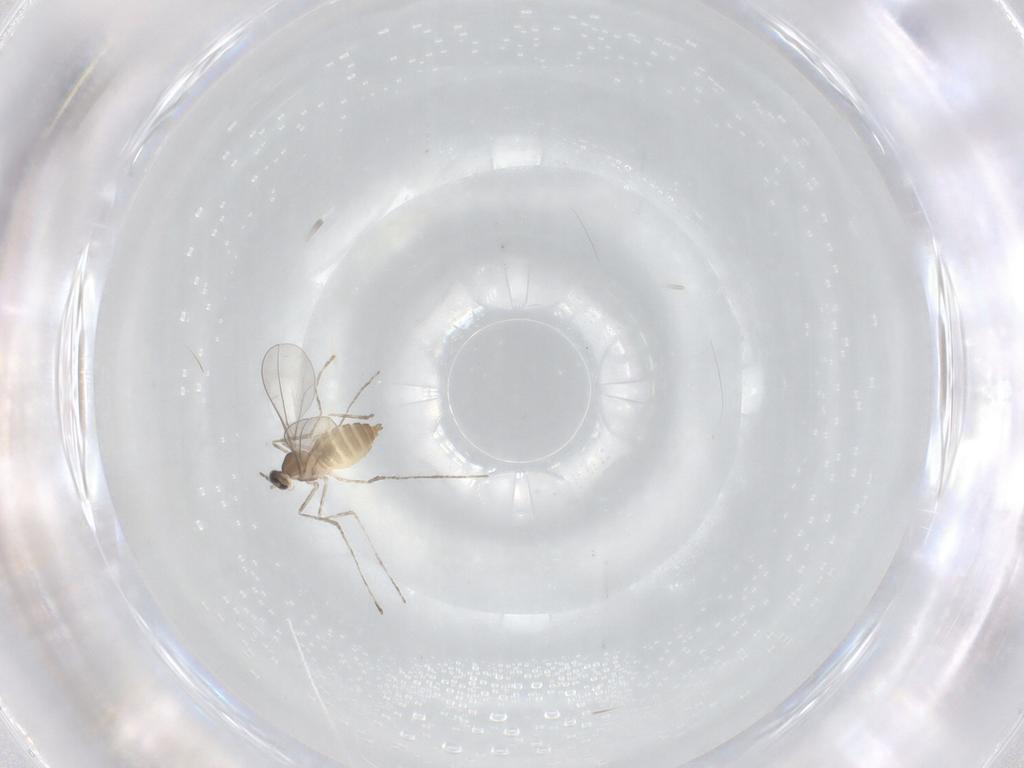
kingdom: Animalia
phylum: Arthropoda
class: Insecta
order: Diptera
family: Cecidomyiidae
